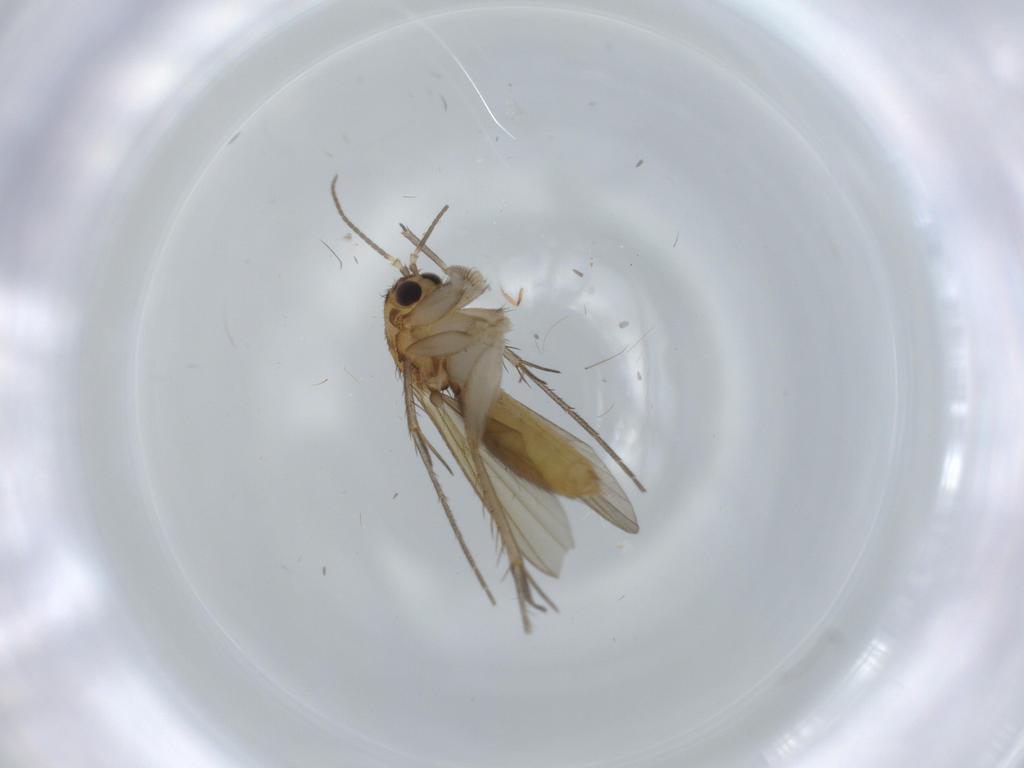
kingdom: Animalia
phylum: Arthropoda
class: Insecta
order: Diptera
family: Mycetophilidae
